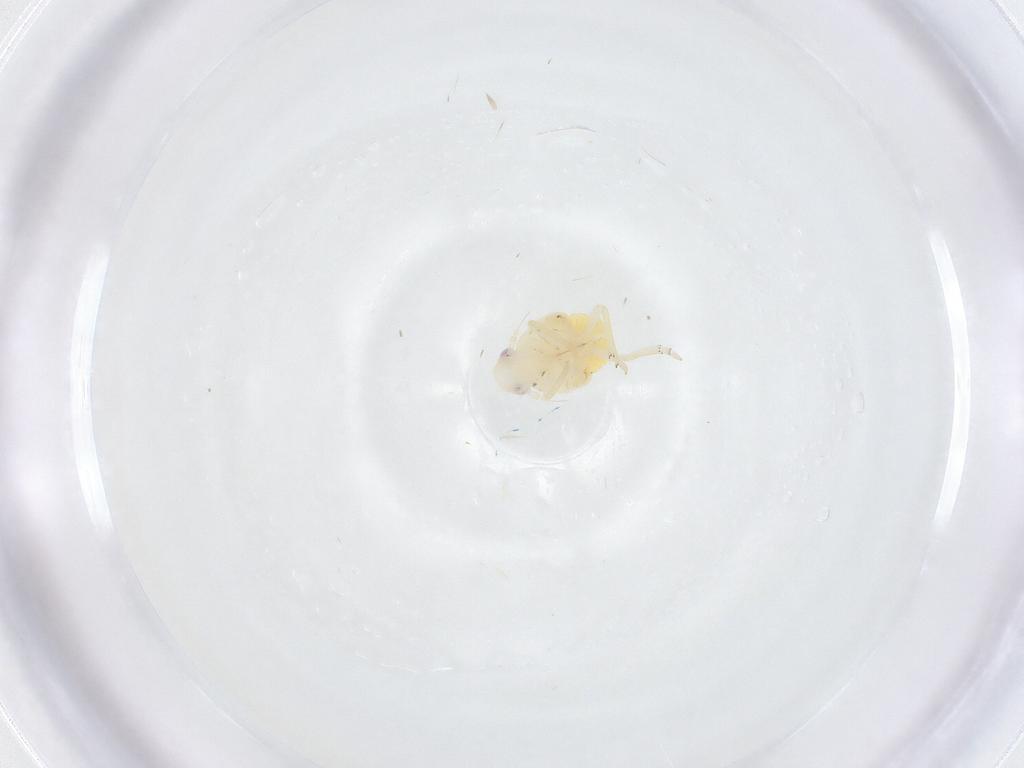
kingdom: Animalia
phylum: Arthropoda
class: Insecta
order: Hemiptera
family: Fulgoroidea_incertae_sedis
